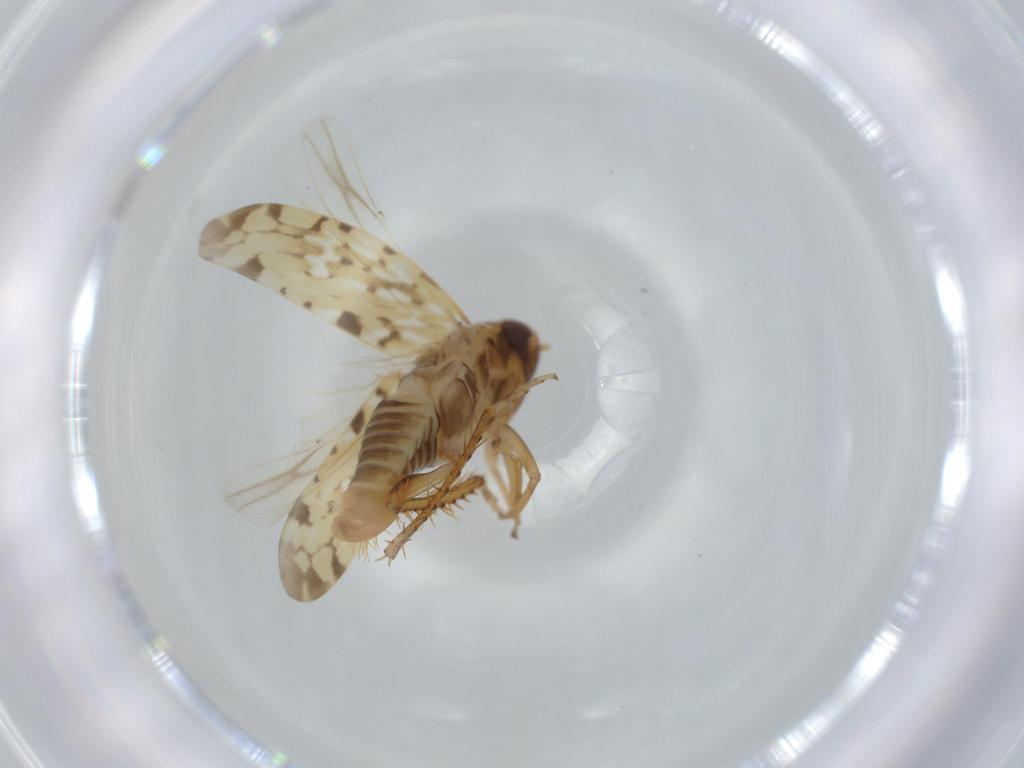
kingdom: Animalia
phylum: Arthropoda
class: Insecta
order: Hemiptera
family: Cicadellidae
